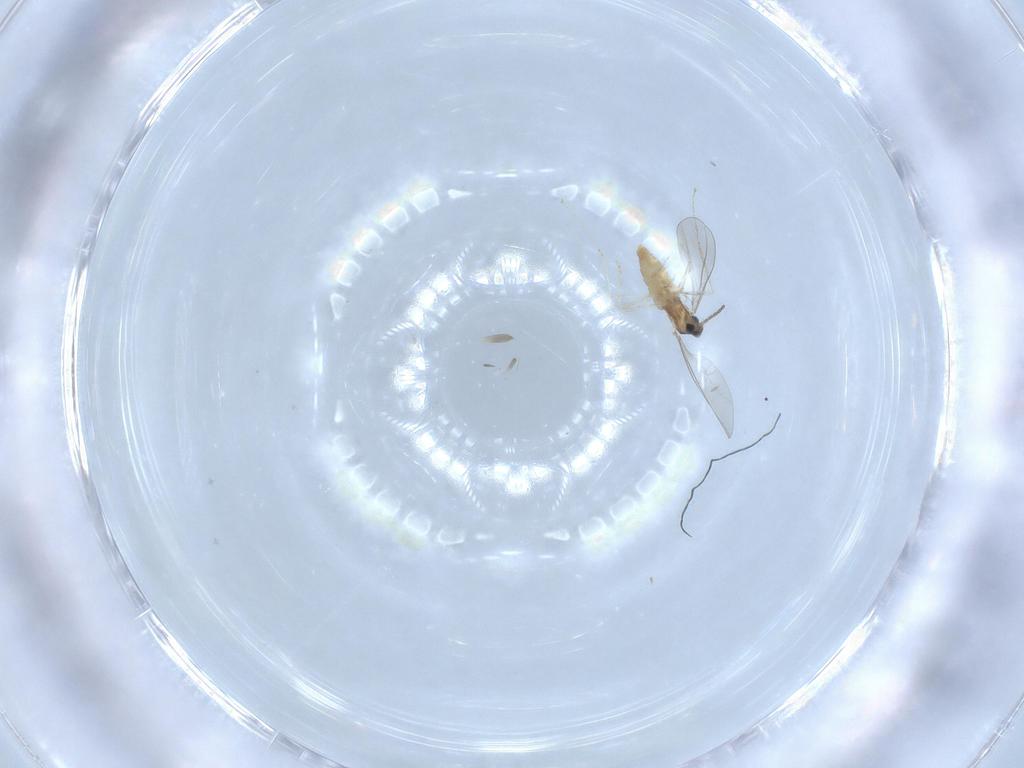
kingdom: Animalia
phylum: Arthropoda
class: Insecta
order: Diptera
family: Cecidomyiidae
